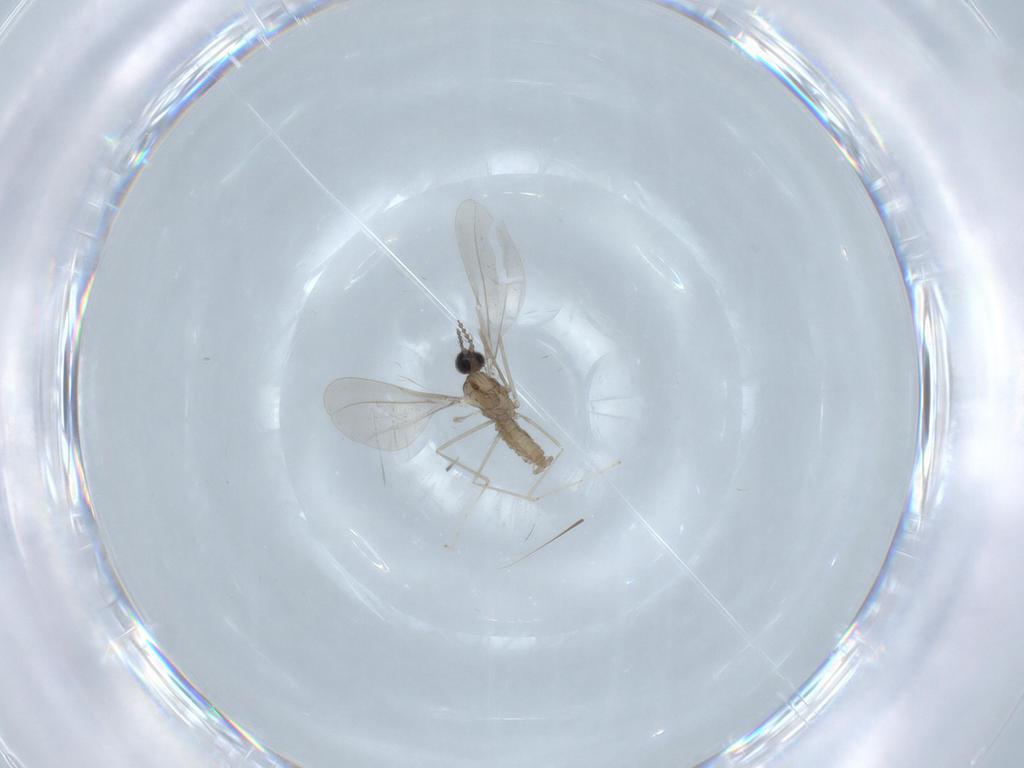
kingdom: Animalia
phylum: Arthropoda
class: Insecta
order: Diptera
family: Cecidomyiidae
